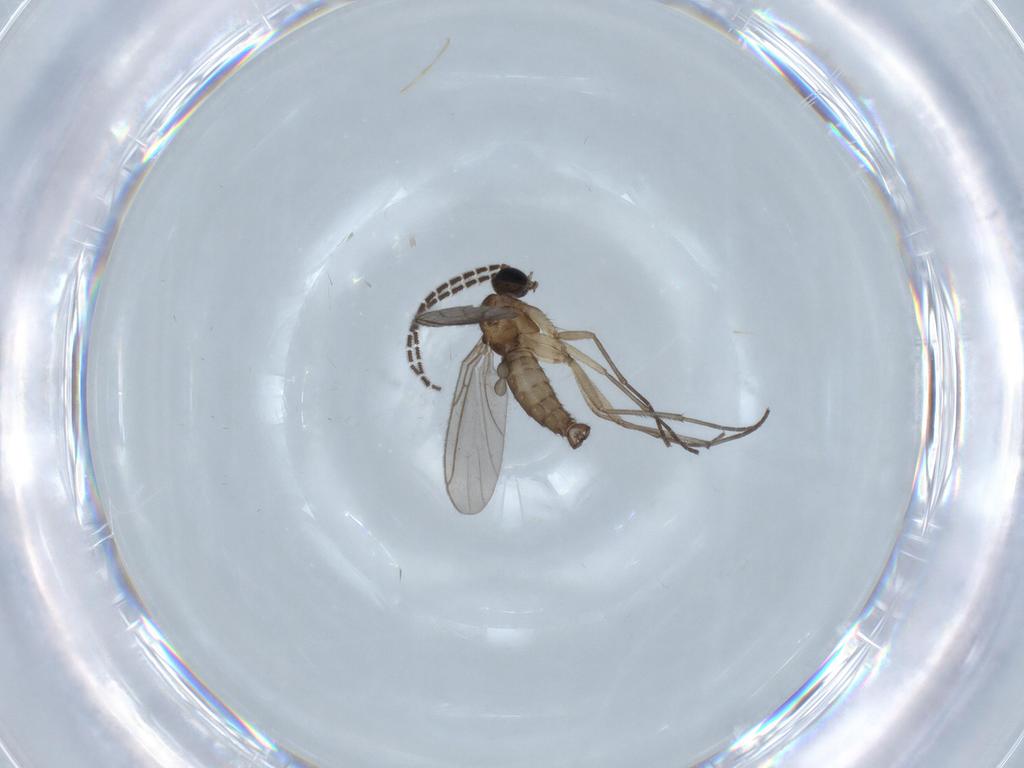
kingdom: Animalia
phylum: Arthropoda
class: Insecta
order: Diptera
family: Sciaridae
